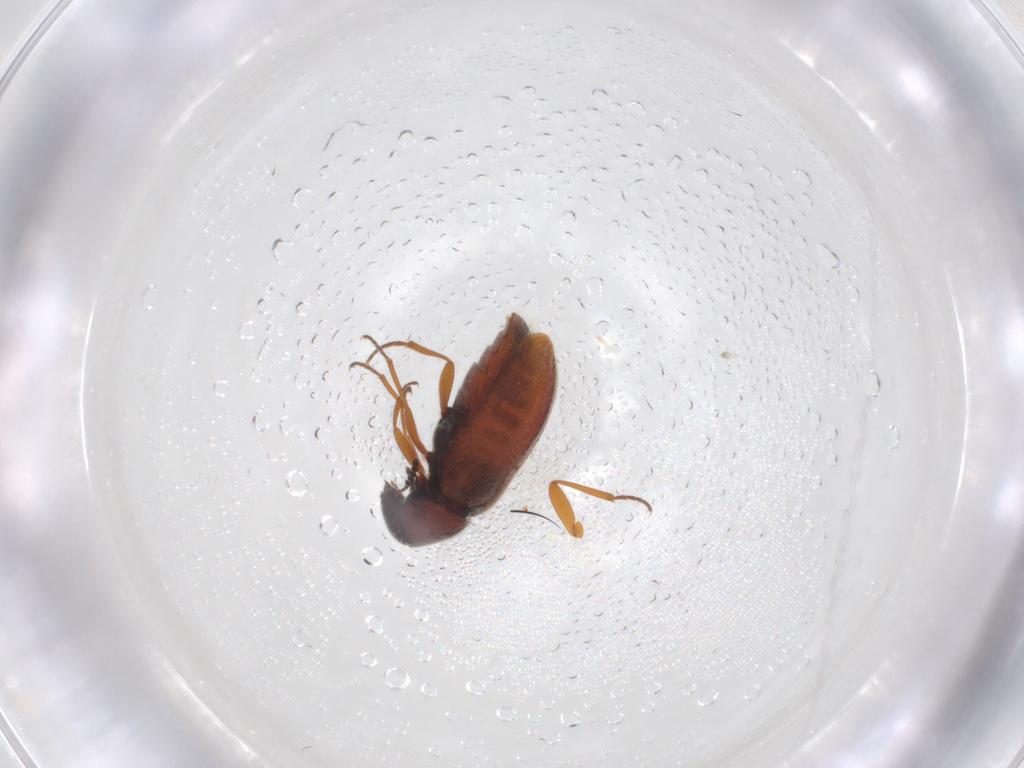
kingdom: Animalia
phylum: Arthropoda
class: Insecta
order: Coleoptera
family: Rhadalidae
